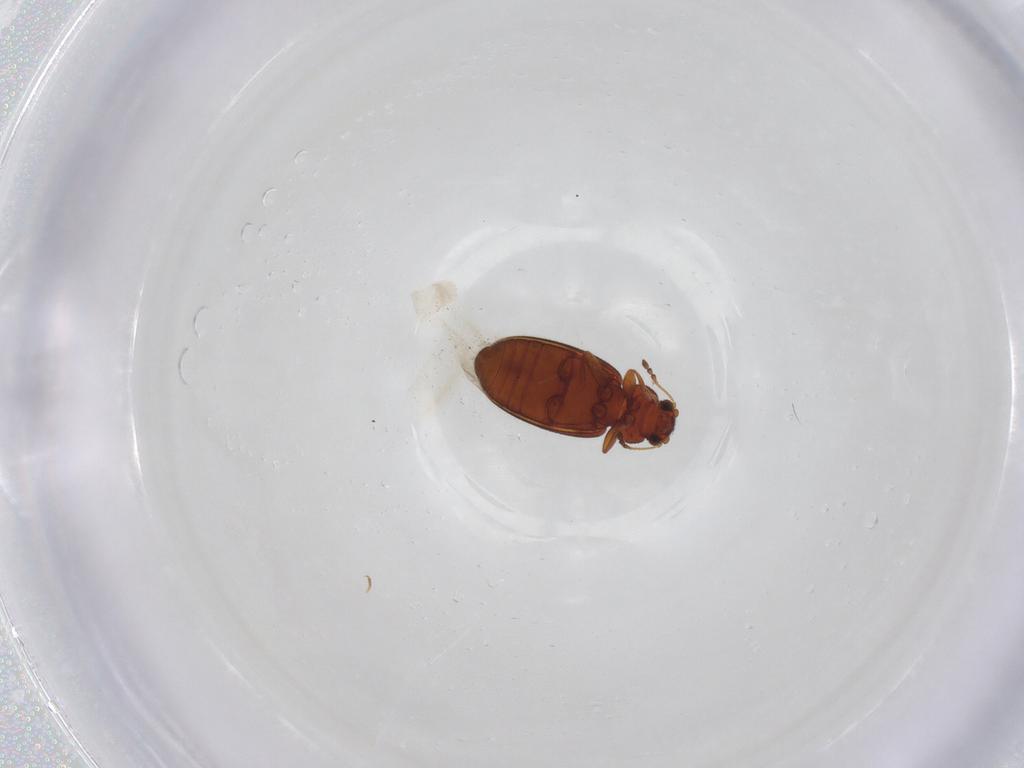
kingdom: Animalia
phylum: Arthropoda
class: Insecta
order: Coleoptera
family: Latridiidae
